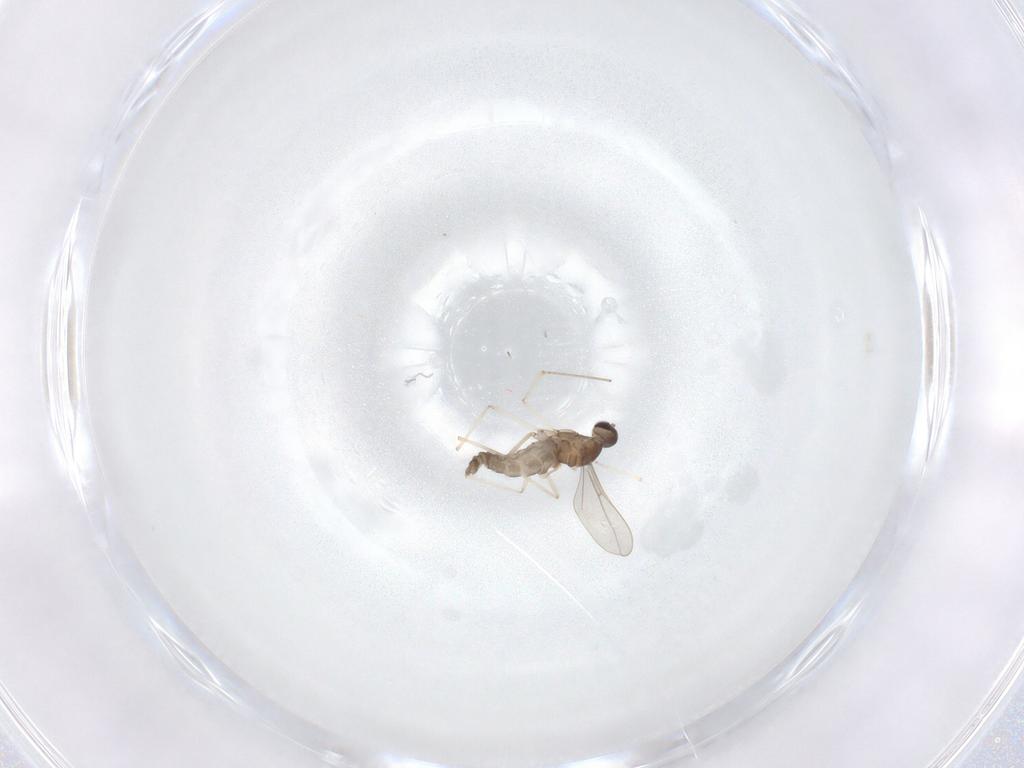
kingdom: Animalia
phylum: Arthropoda
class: Insecta
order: Diptera
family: Cecidomyiidae
